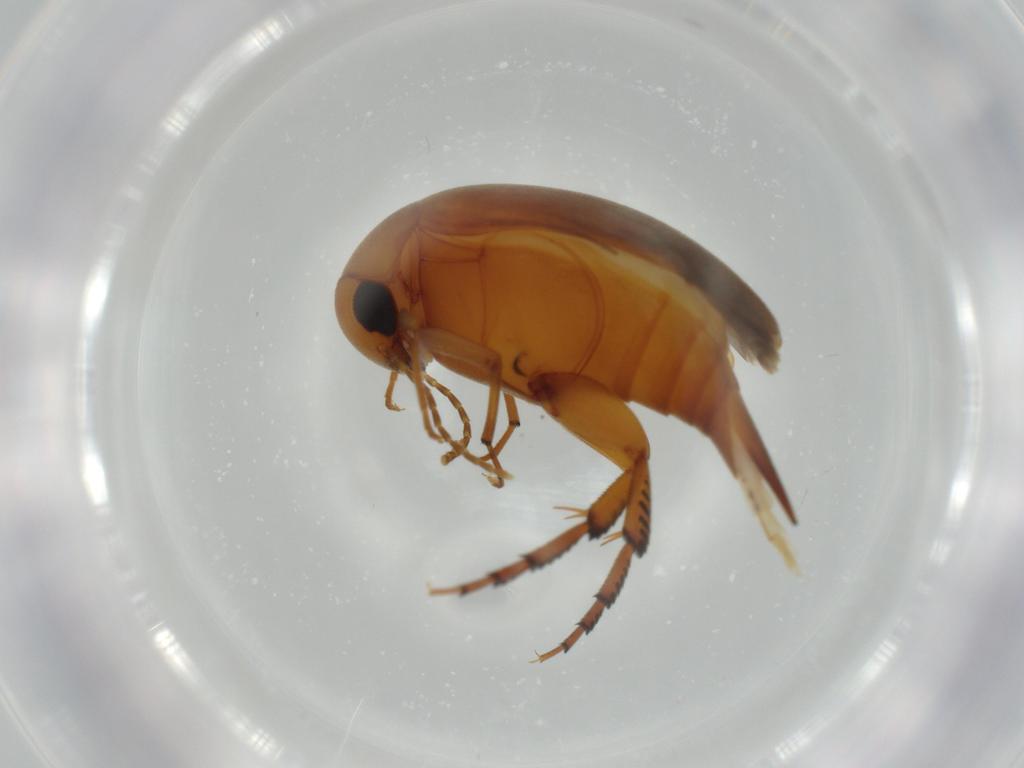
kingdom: Animalia
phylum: Arthropoda
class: Insecta
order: Coleoptera
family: Mordellidae
